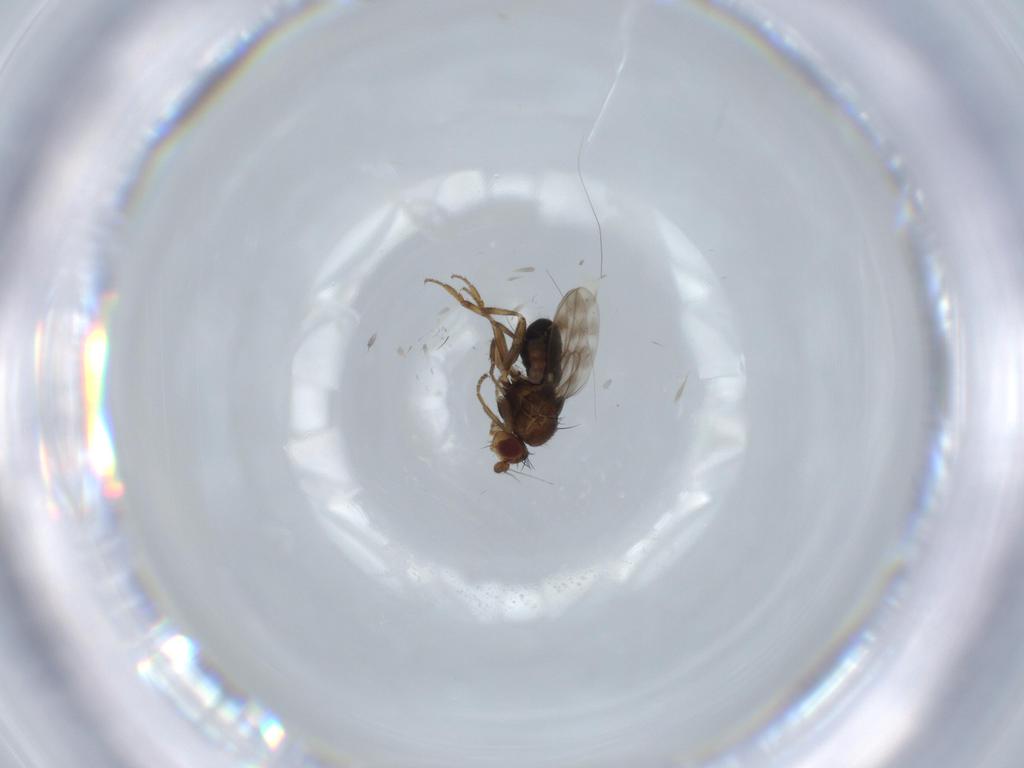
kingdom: Animalia
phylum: Arthropoda
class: Insecta
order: Diptera
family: Sphaeroceridae
